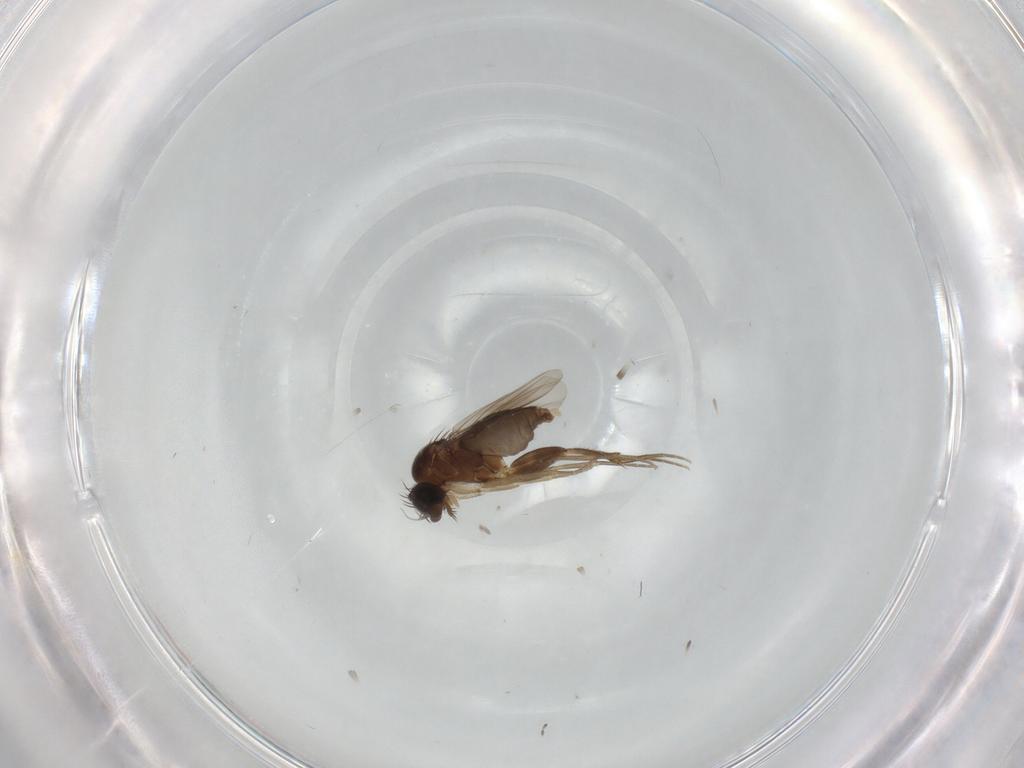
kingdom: Animalia
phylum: Arthropoda
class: Insecta
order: Diptera
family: Phoridae
